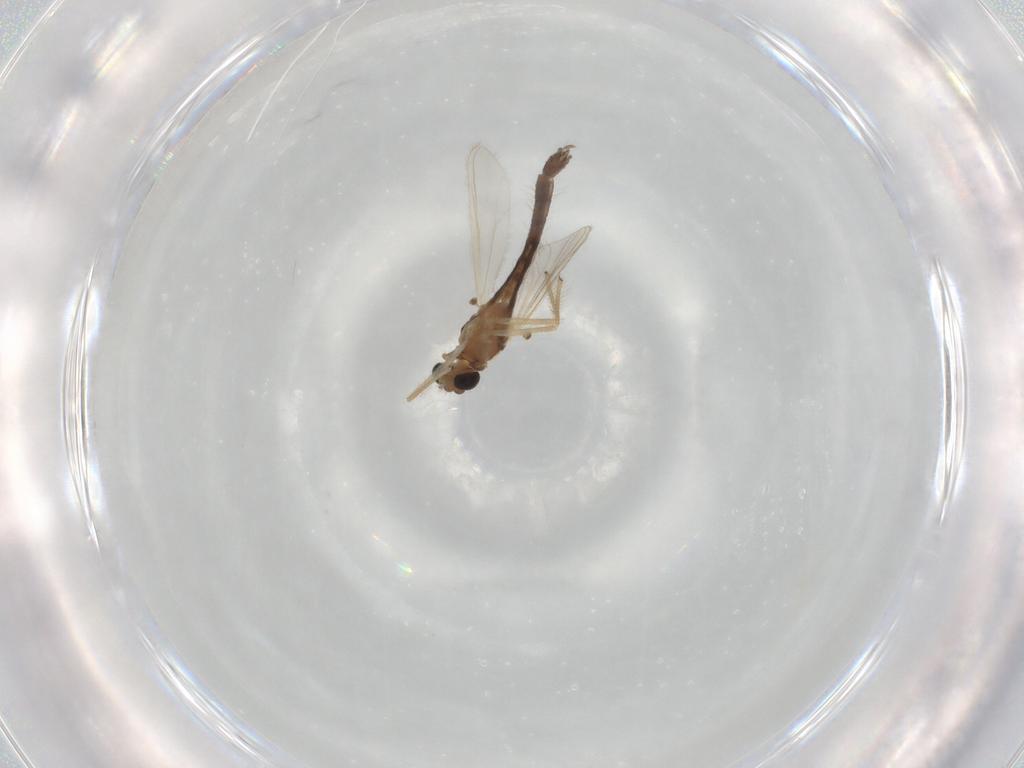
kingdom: Animalia
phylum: Arthropoda
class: Insecta
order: Diptera
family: Chironomidae
